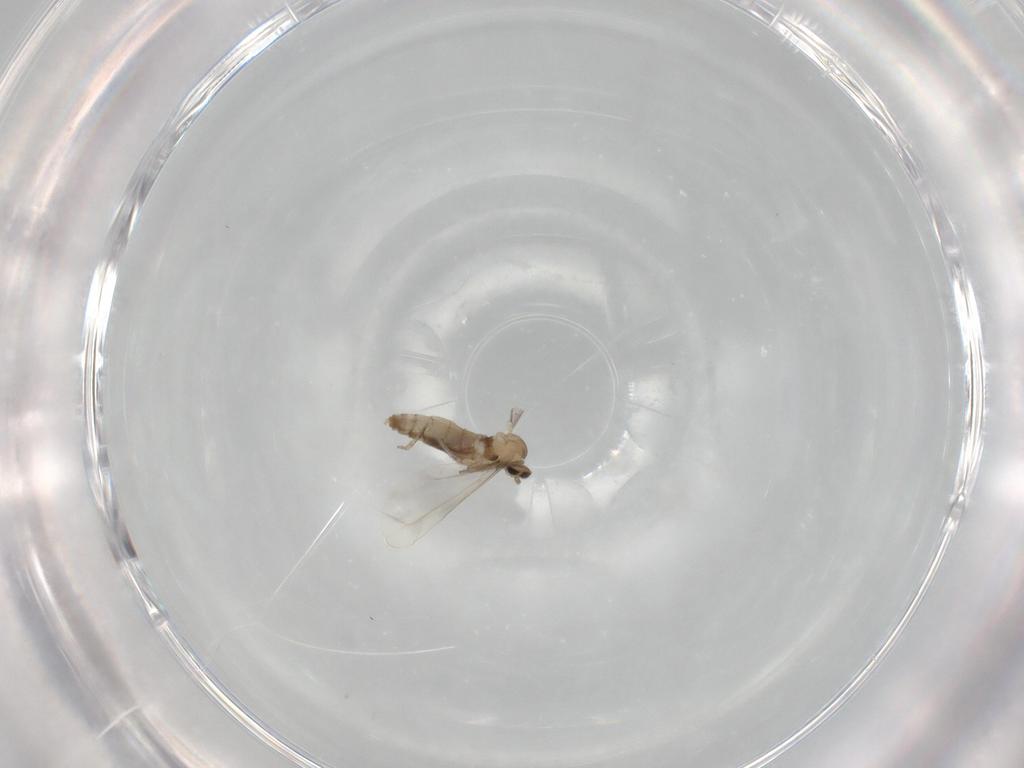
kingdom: Animalia
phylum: Arthropoda
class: Insecta
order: Diptera
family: Cecidomyiidae
